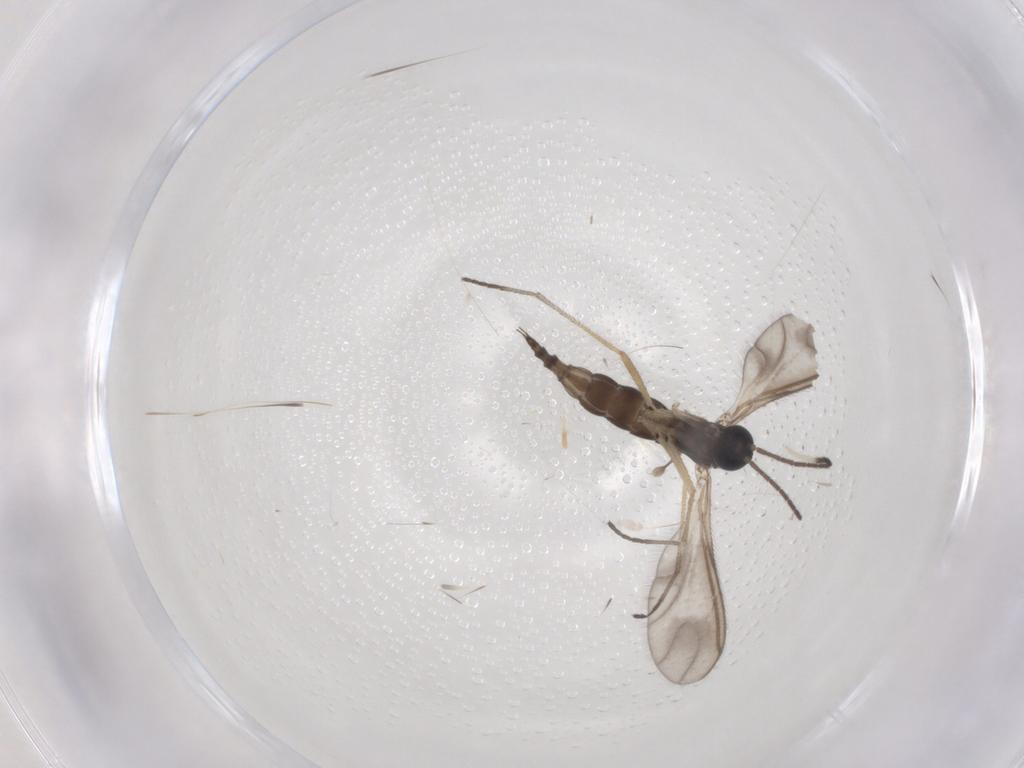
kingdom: Animalia
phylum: Arthropoda
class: Insecta
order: Diptera
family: Sciaridae
